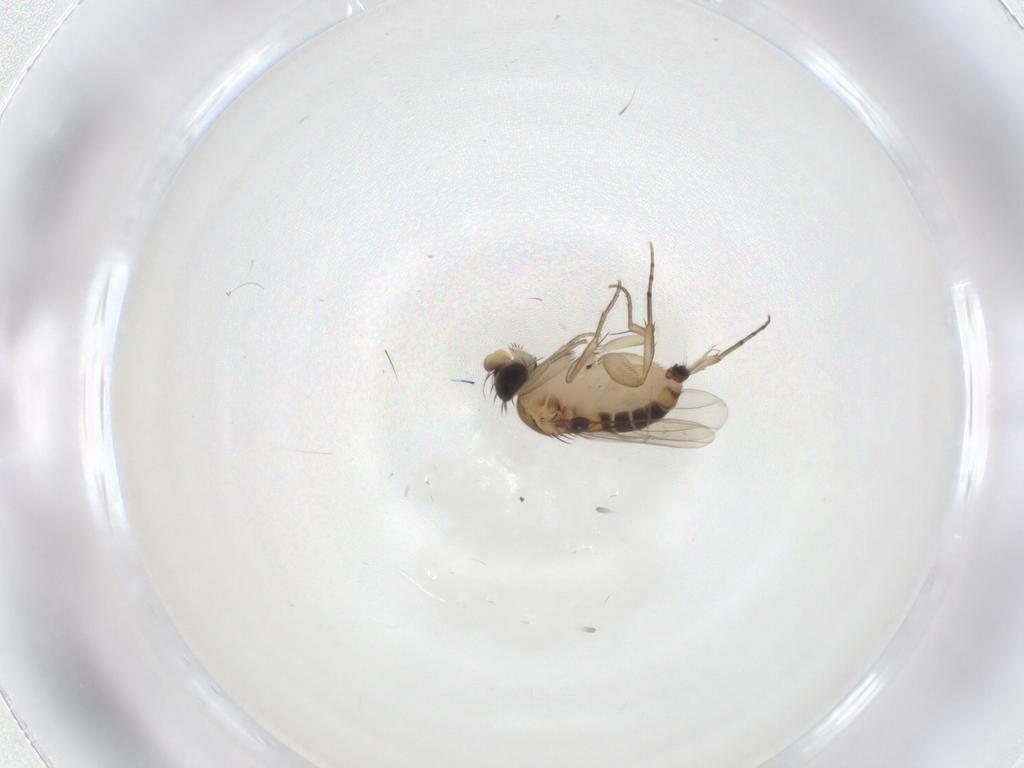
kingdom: Animalia
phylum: Arthropoda
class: Insecta
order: Diptera
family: Phoridae
